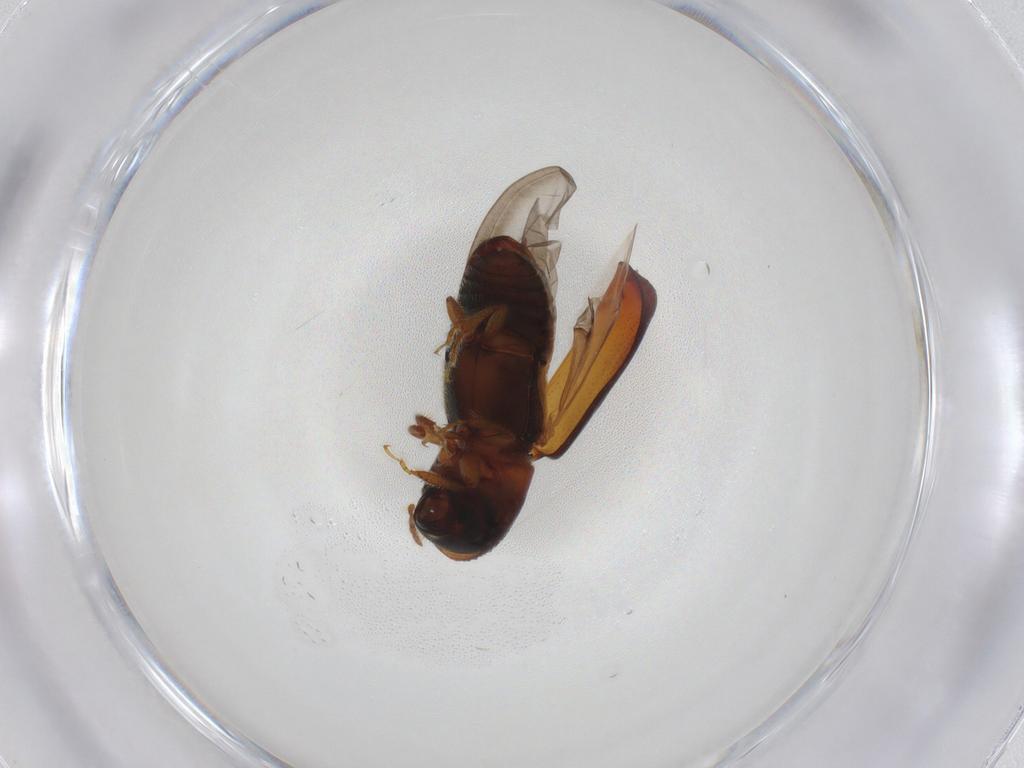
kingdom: Animalia
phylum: Arthropoda
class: Insecta
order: Coleoptera
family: Curculionidae
